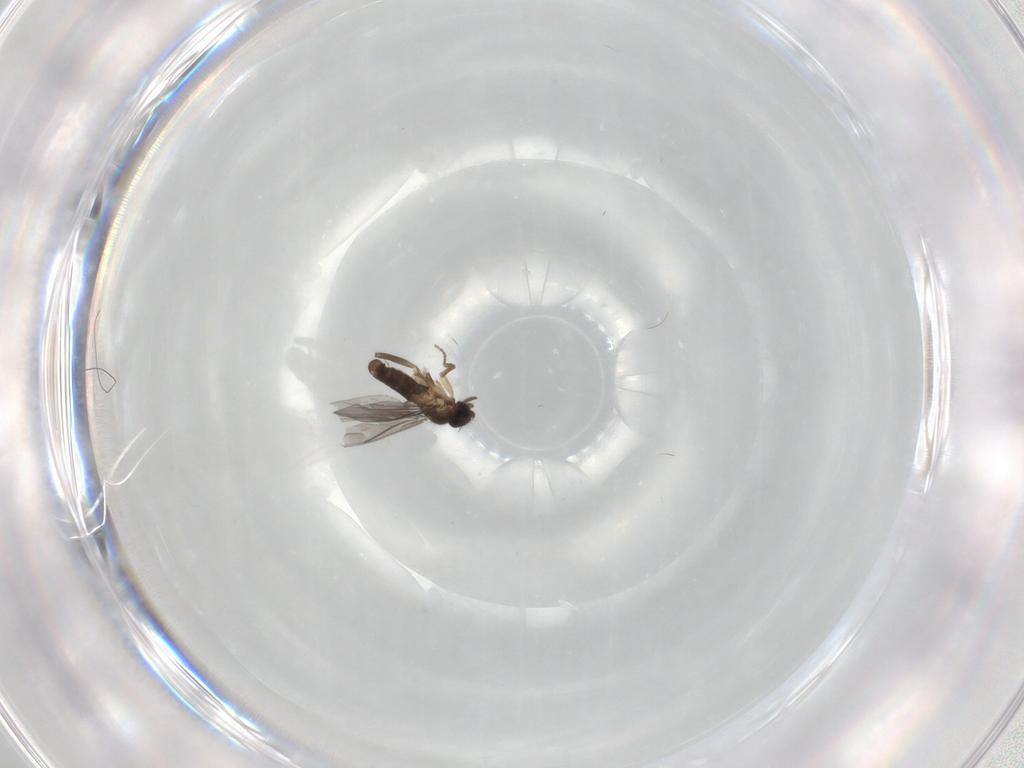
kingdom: Animalia
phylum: Arthropoda
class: Insecta
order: Diptera
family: Phoridae
